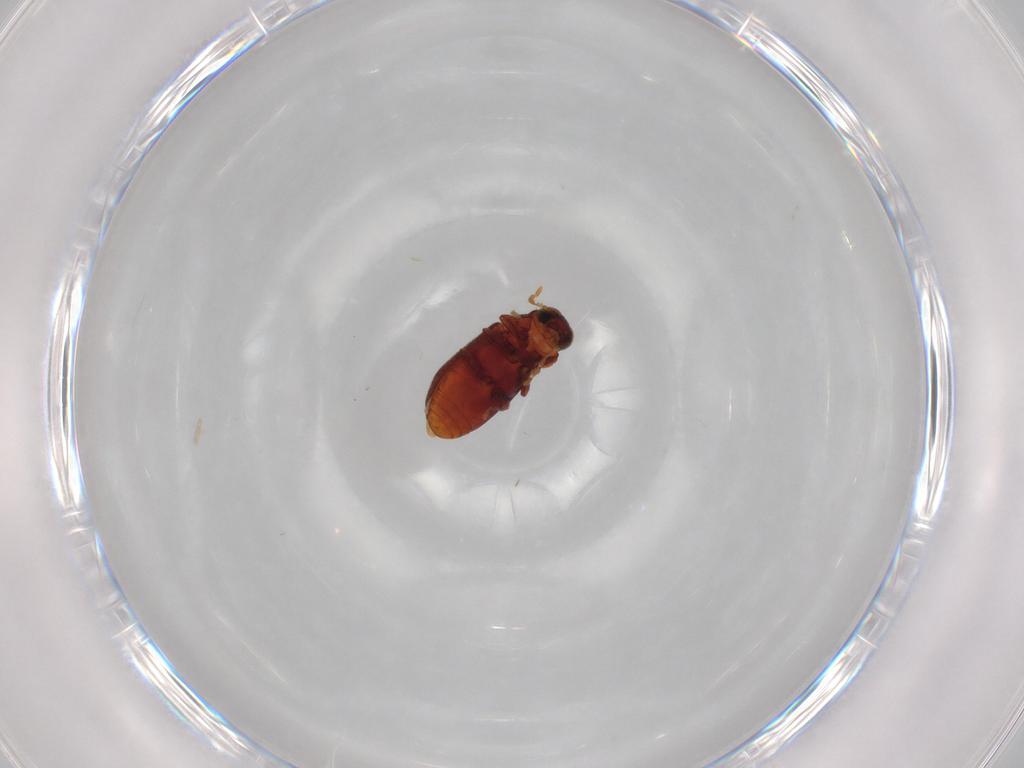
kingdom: Animalia
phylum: Arthropoda
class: Insecta
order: Coleoptera
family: Ptinidae
